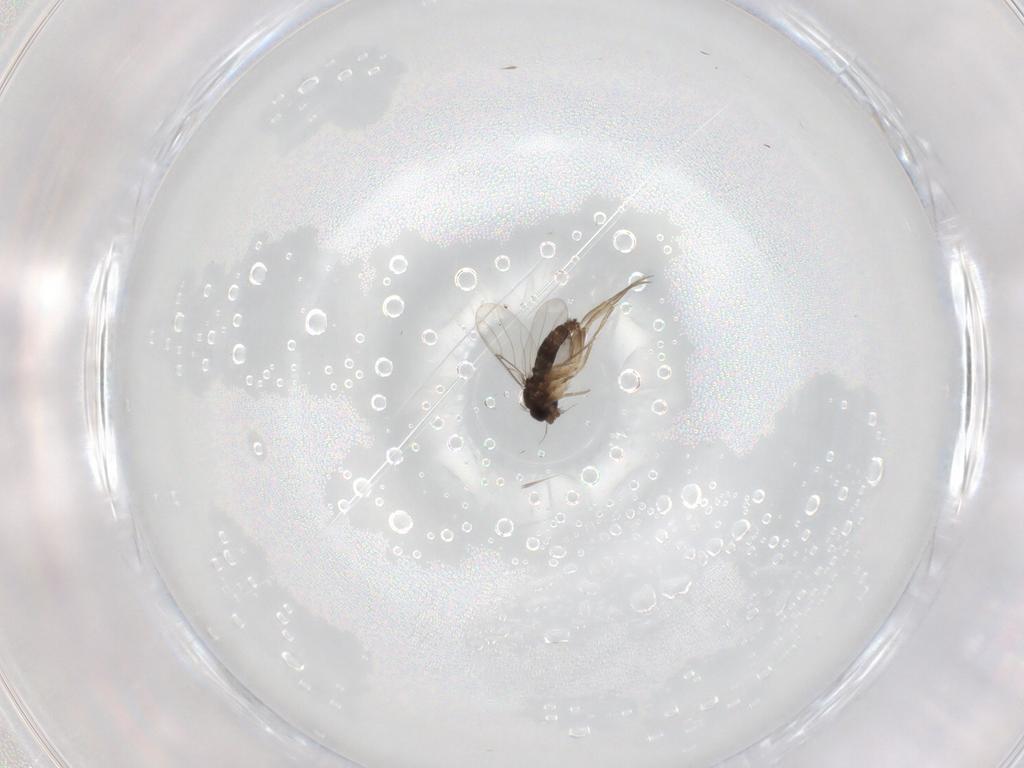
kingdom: Animalia
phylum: Arthropoda
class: Insecta
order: Diptera
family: Phoridae
